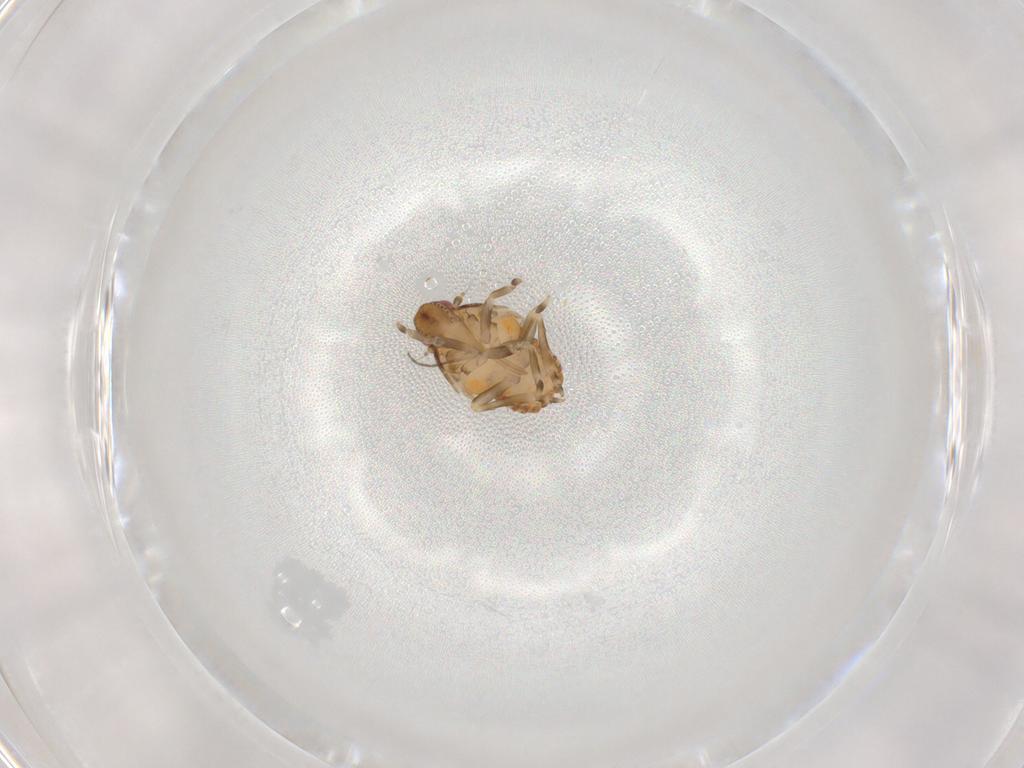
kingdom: Animalia
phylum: Arthropoda
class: Insecta
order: Hemiptera
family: Flatidae
